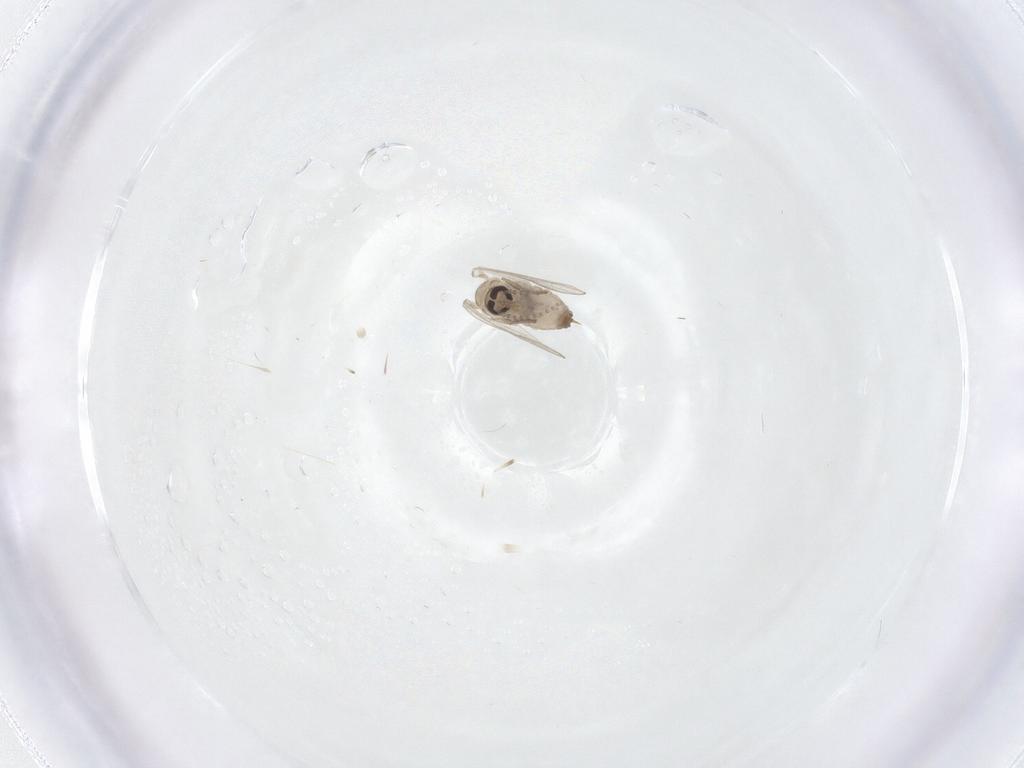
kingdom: Animalia
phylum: Arthropoda
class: Insecta
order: Diptera
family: Psychodidae
